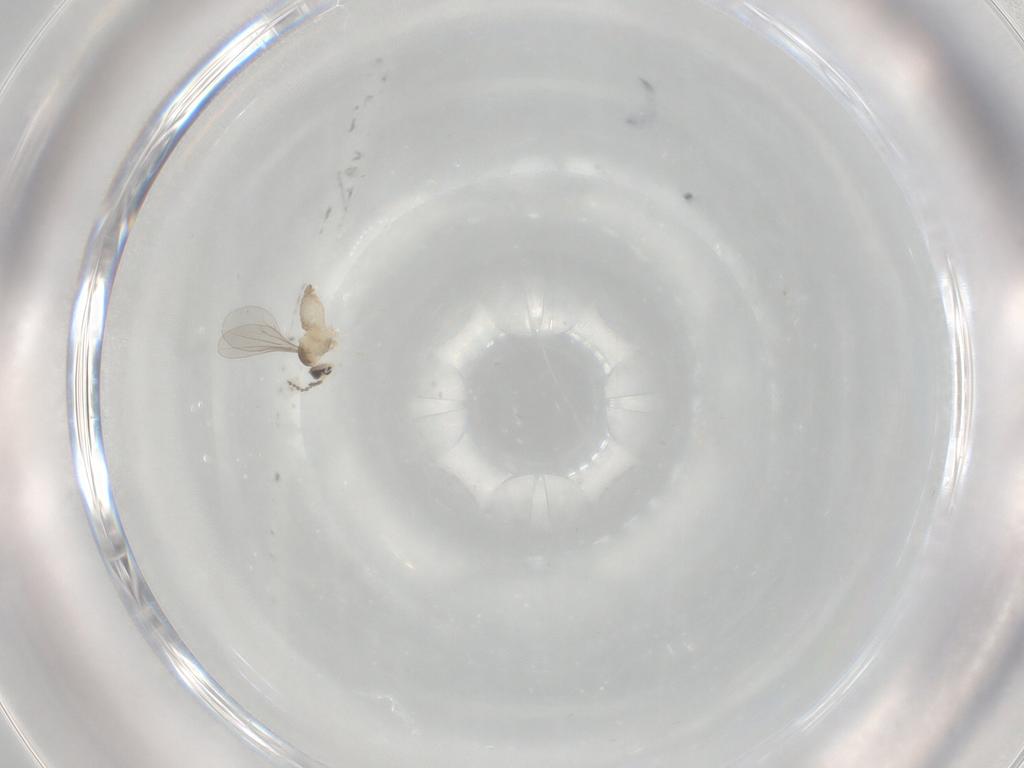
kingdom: Animalia
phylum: Arthropoda
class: Insecta
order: Diptera
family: Cecidomyiidae
